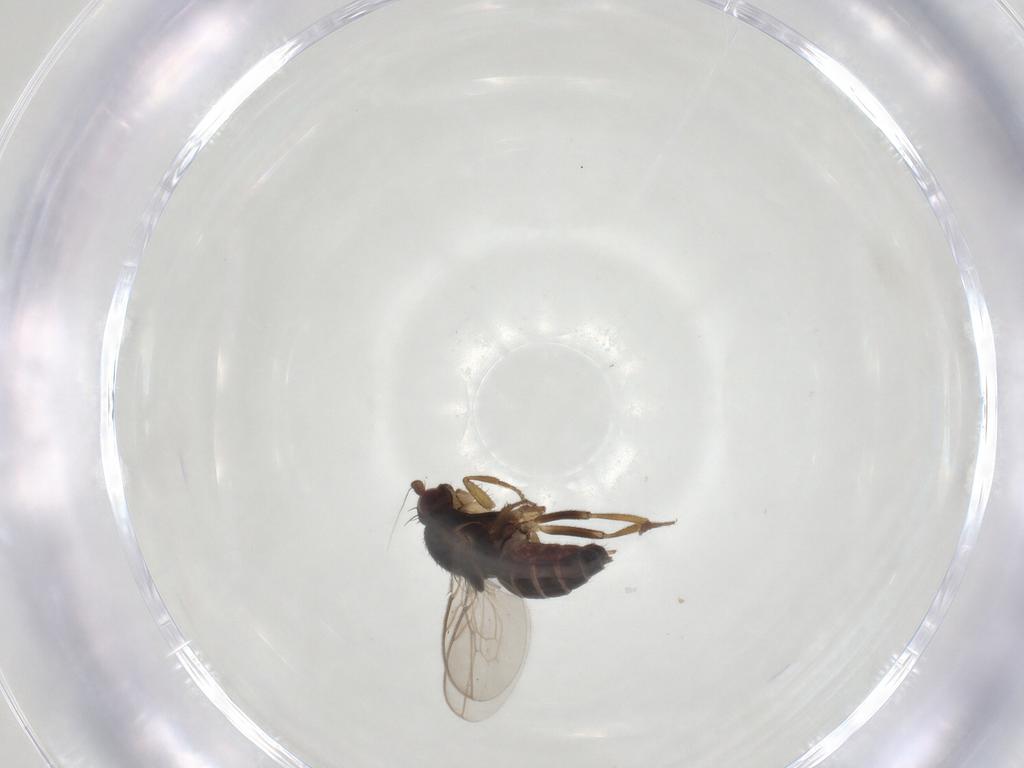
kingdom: Animalia
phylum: Arthropoda
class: Insecta
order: Diptera
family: Sphaeroceridae
